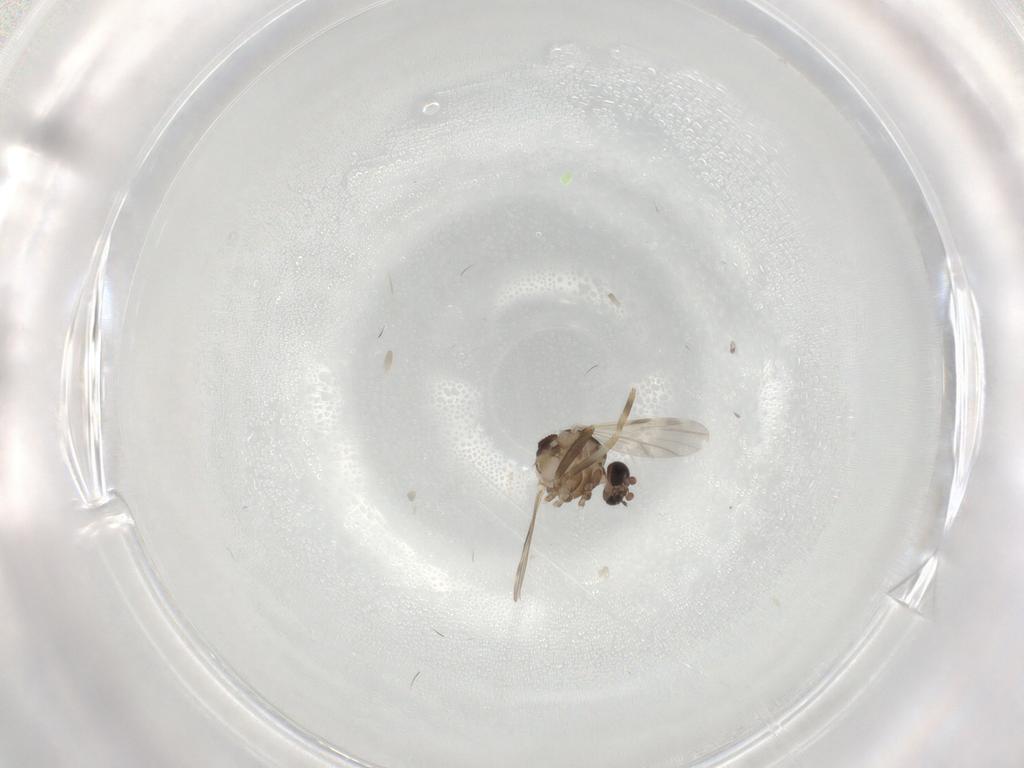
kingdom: Animalia
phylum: Arthropoda
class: Insecta
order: Diptera
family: Ceratopogonidae
